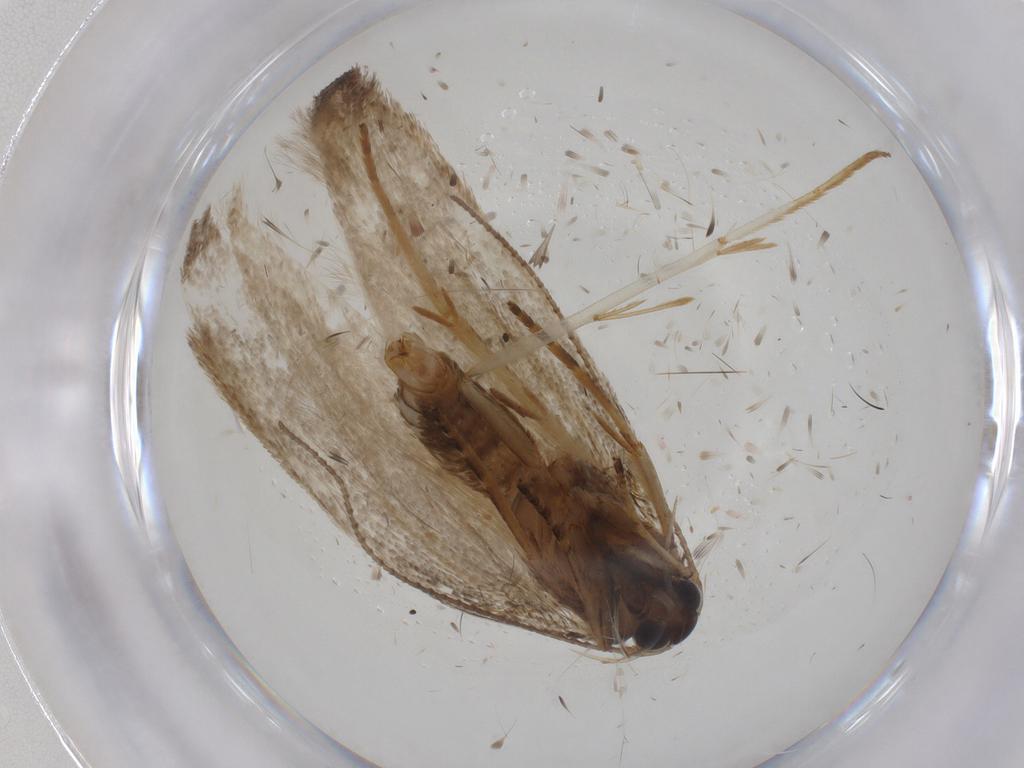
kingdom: Animalia
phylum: Arthropoda
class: Insecta
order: Lepidoptera
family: Erebidae
